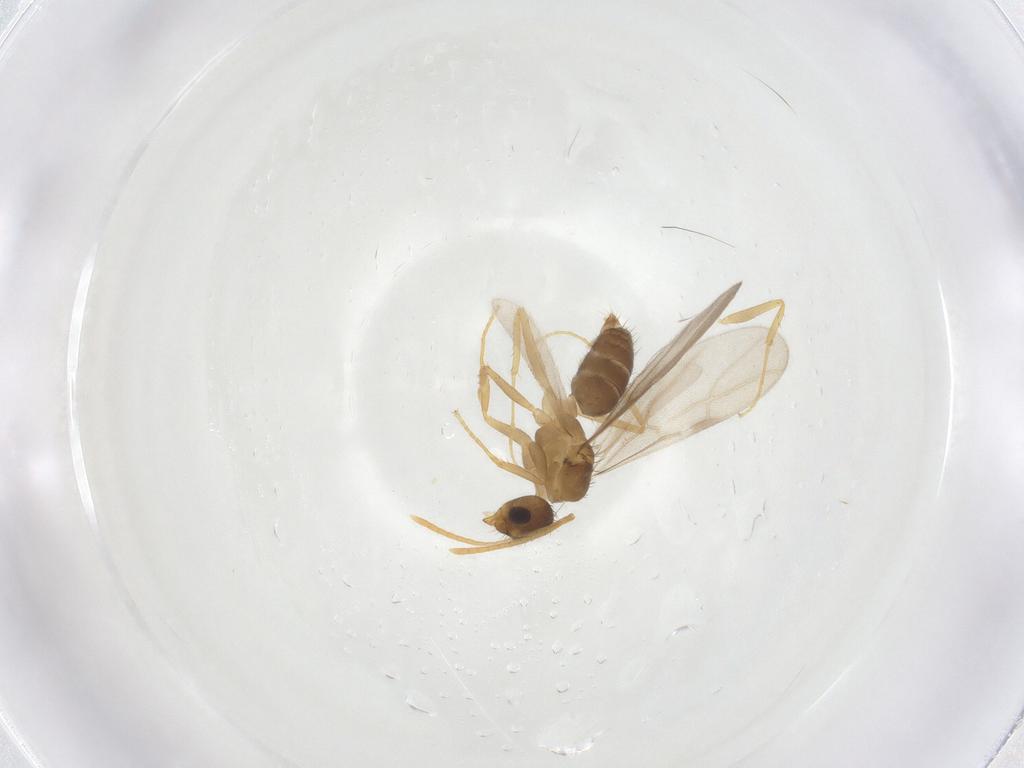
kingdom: Animalia
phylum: Arthropoda
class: Insecta
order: Hymenoptera
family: Formicidae
